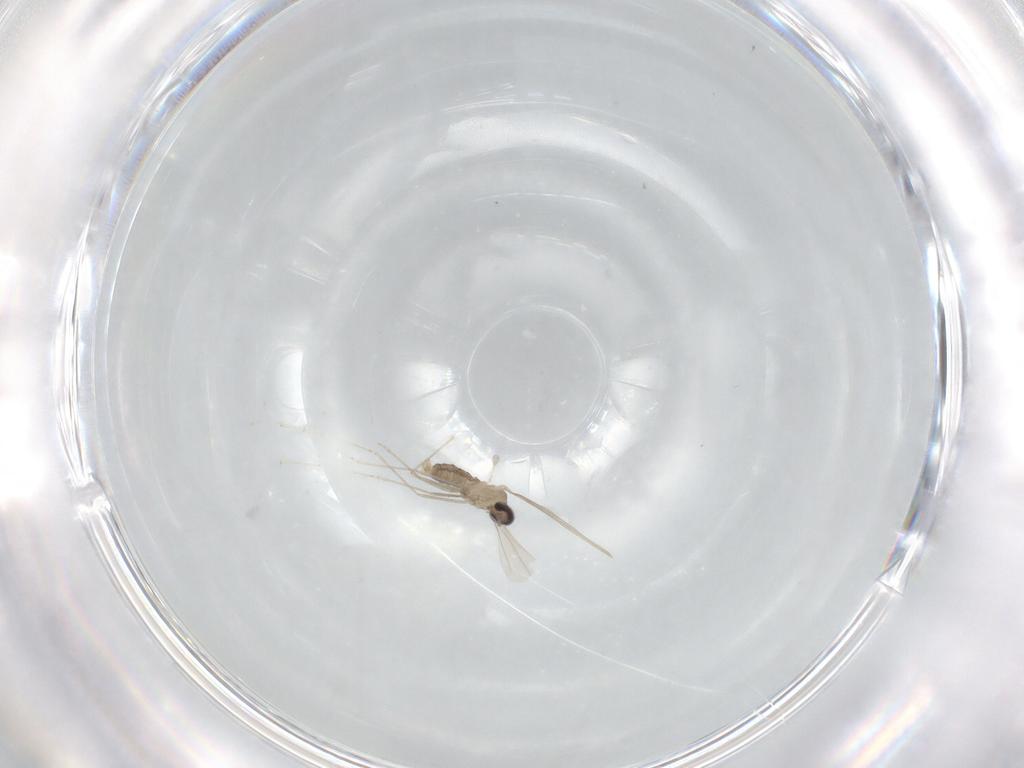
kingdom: Animalia
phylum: Arthropoda
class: Insecta
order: Diptera
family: Cecidomyiidae
